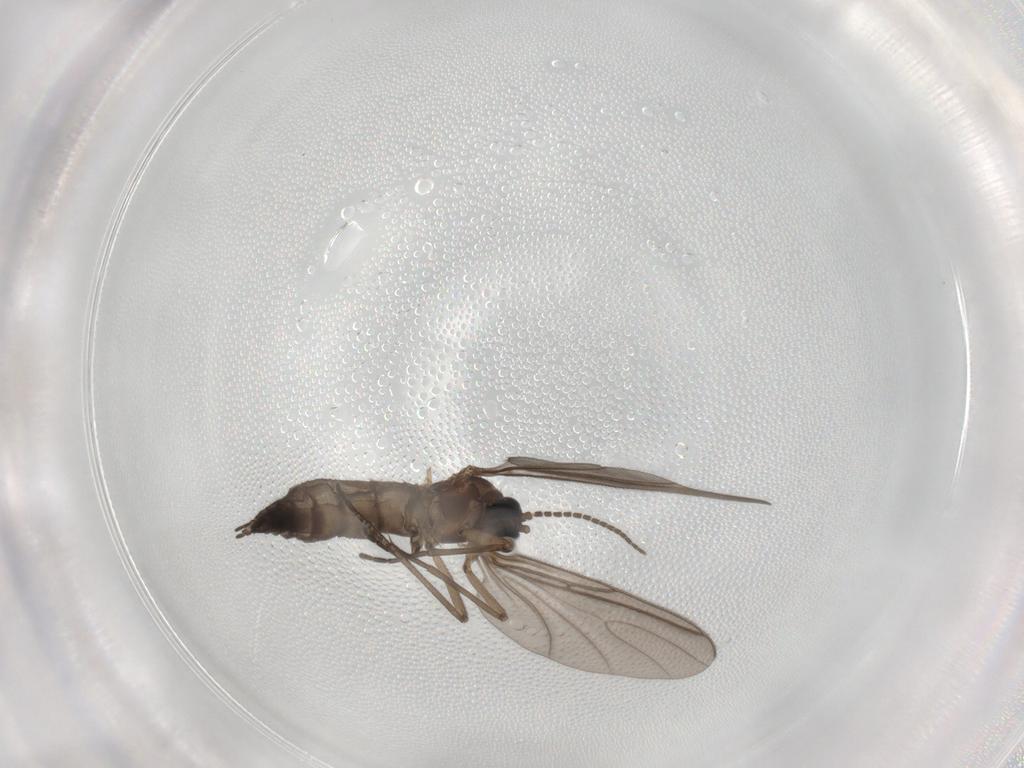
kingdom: Animalia
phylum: Arthropoda
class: Insecta
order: Diptera
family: Sciaridae
